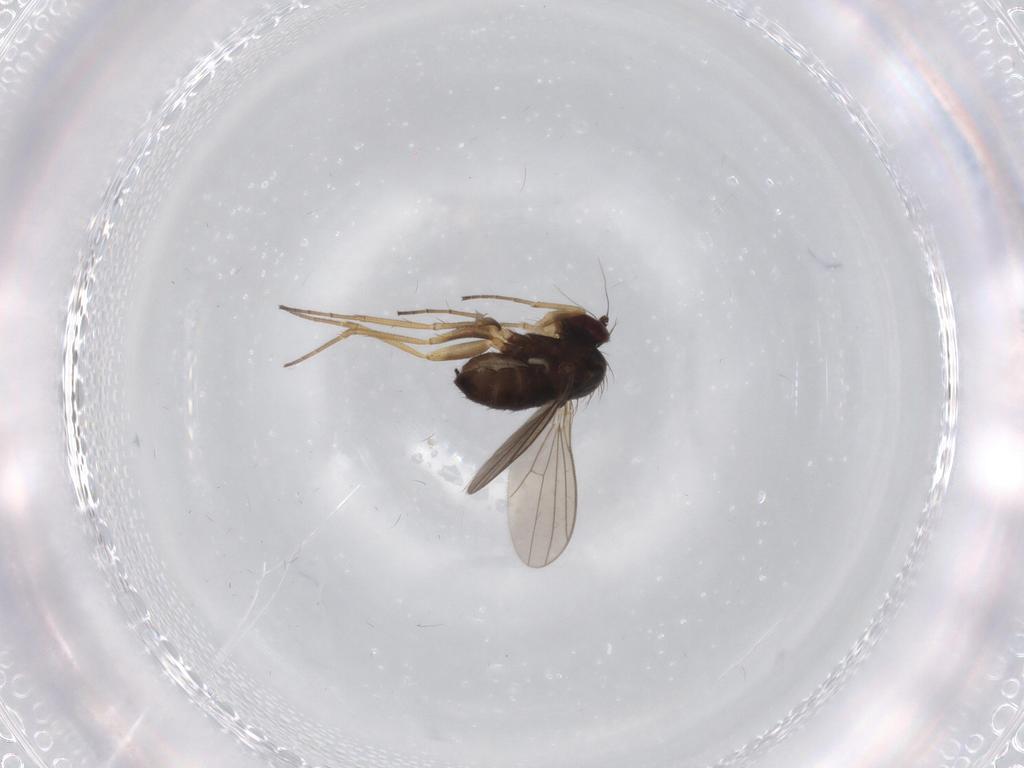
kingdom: Animalia
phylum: Arthropoda
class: Insecta
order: Diptera
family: Dolichopodidae
